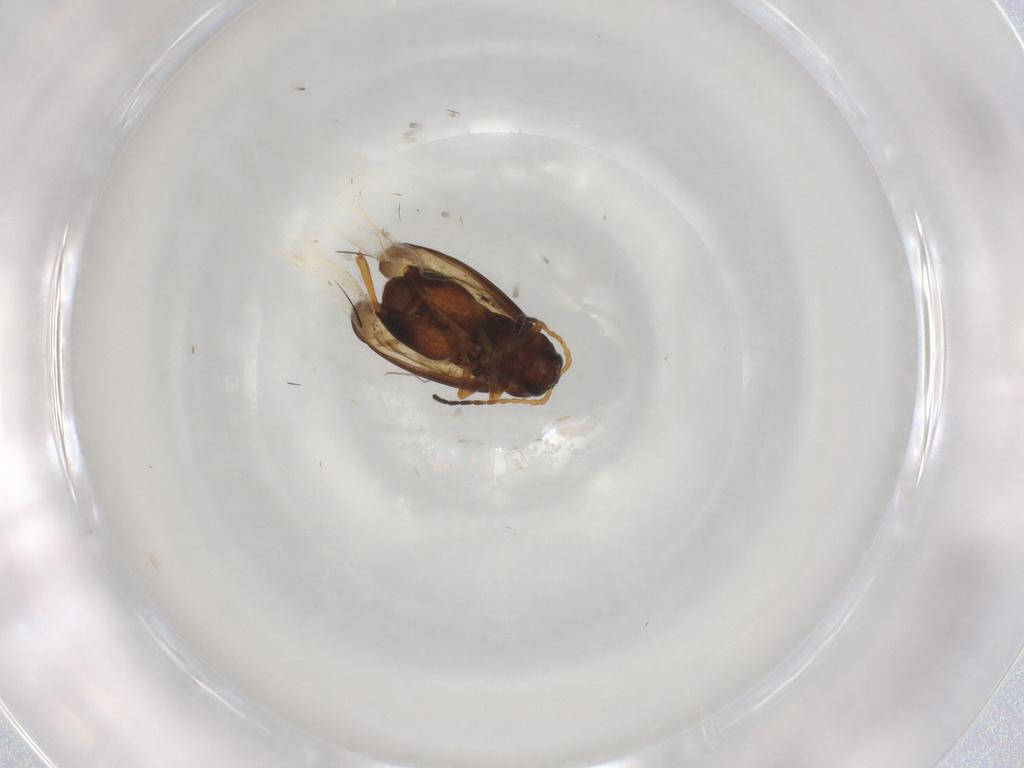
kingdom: Animalia
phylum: Arthropoda
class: Insecta
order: Coleoptera
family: Chrysomelidae
